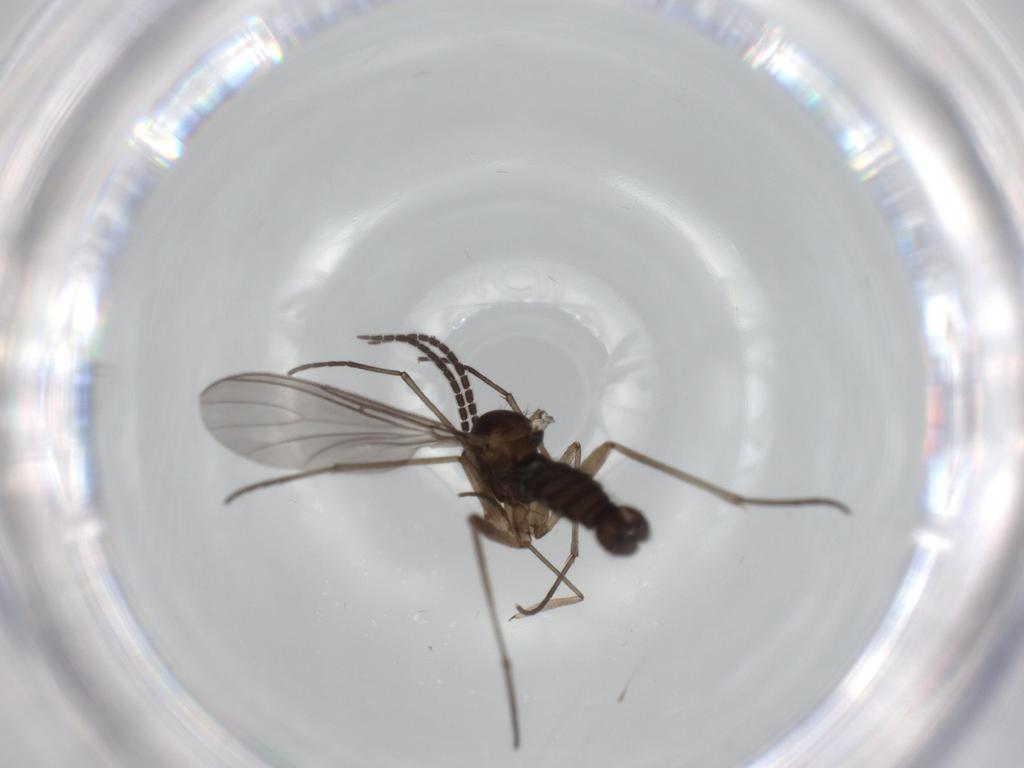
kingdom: Animalia
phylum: Arthropoda
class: Insecta
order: Diptera
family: Sciaridae
